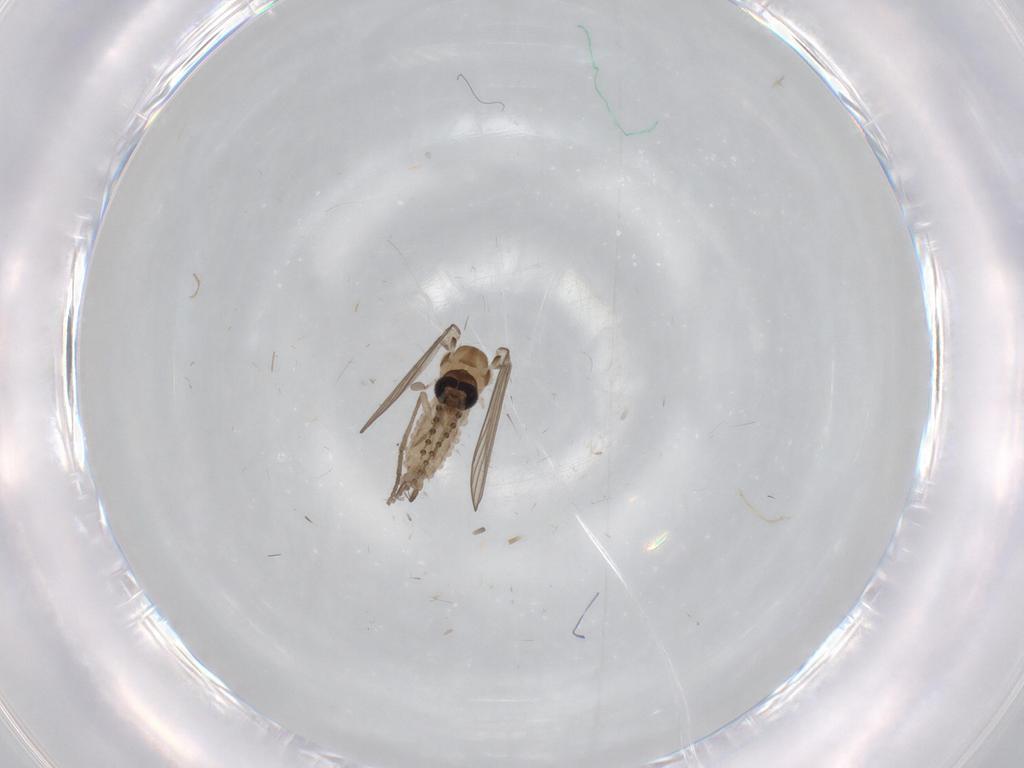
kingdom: Animalia
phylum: Arthropoda
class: Insecta
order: Diptera
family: Psychodidae
